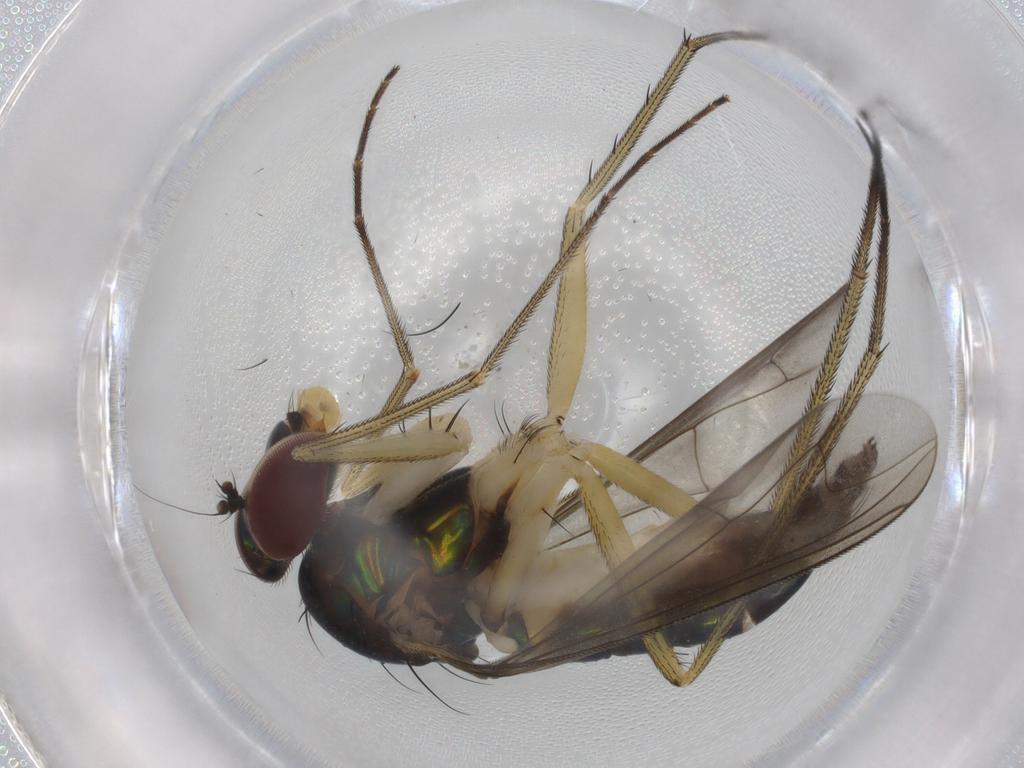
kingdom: Animalia
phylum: Arthropoda
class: Insecta
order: Diptera
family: Dolichopodidae
